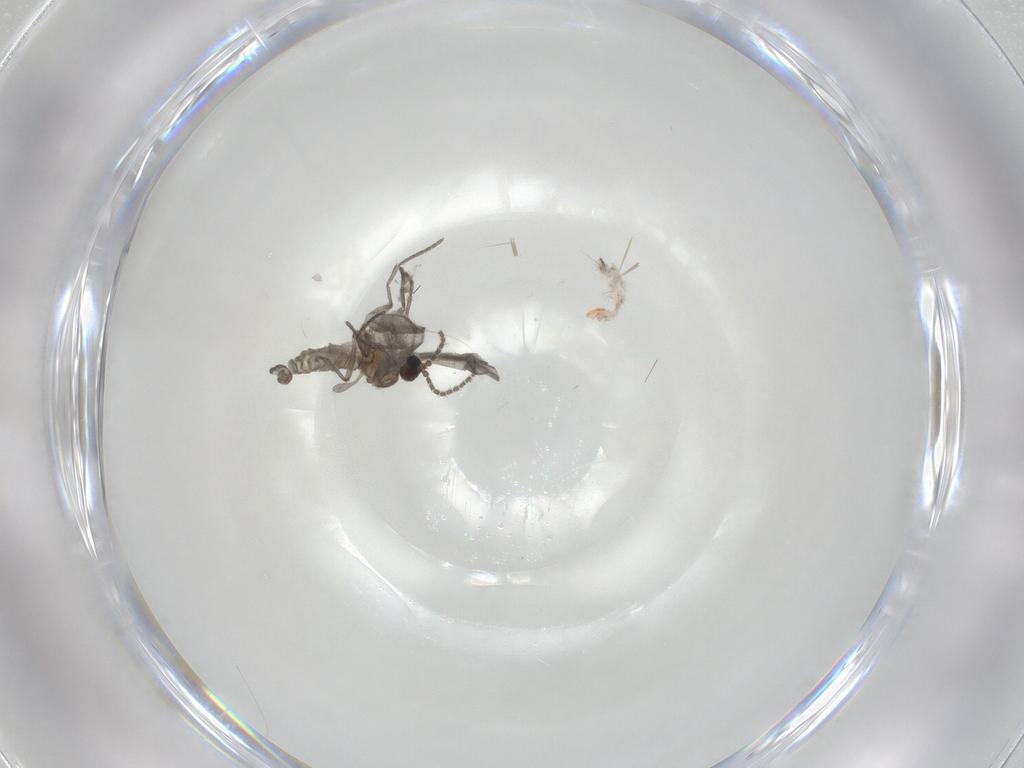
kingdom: Animalia
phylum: Arthropoda
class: Insecta
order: Diptera
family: Sciaridae
